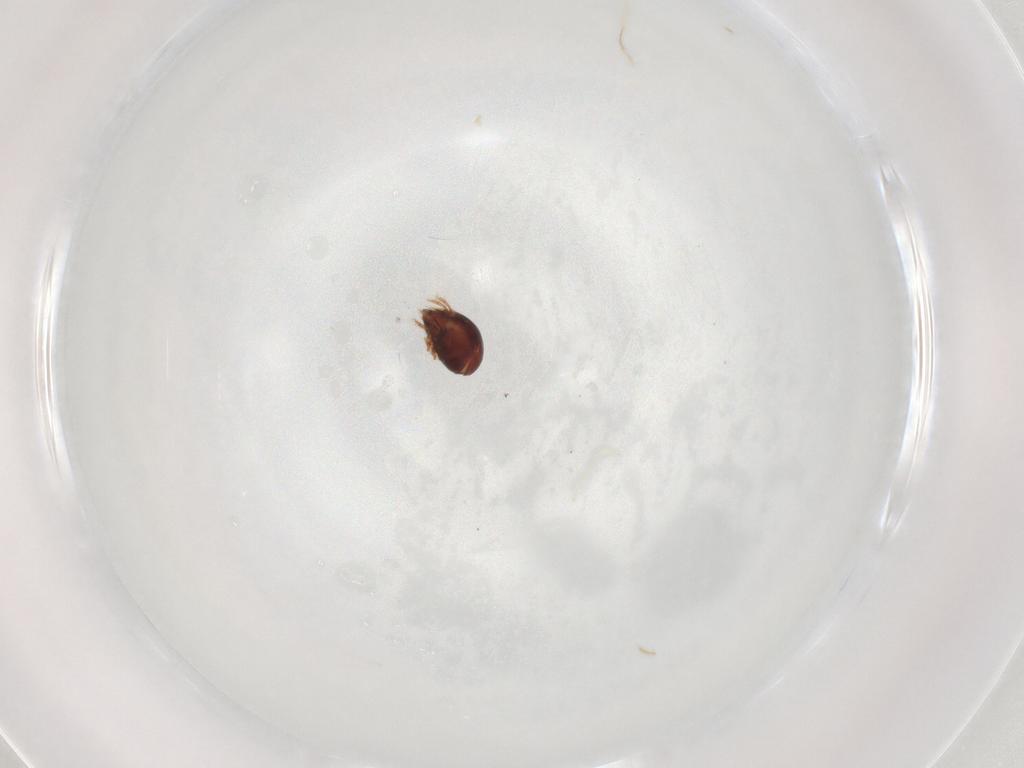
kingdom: Animalia
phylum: Arthropoda
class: Arachnida
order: Sarcoptiformes
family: Humerobatidae
